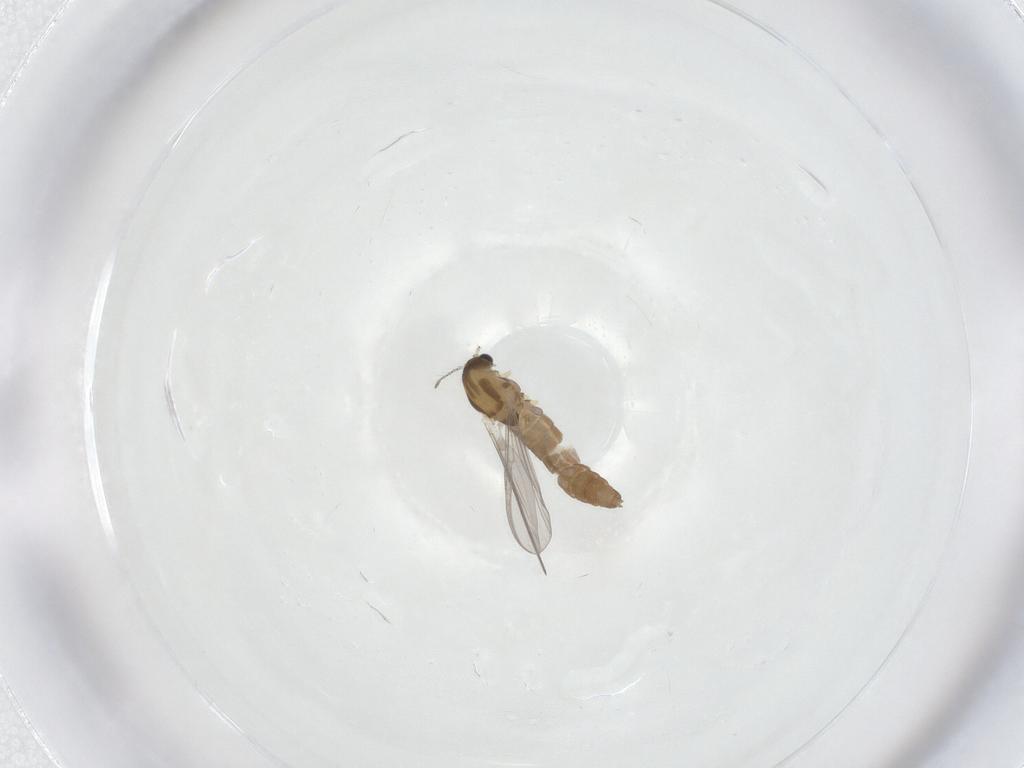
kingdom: Animalia
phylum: Arthropoda
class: Insecta
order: Diptera
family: Chironomidae
